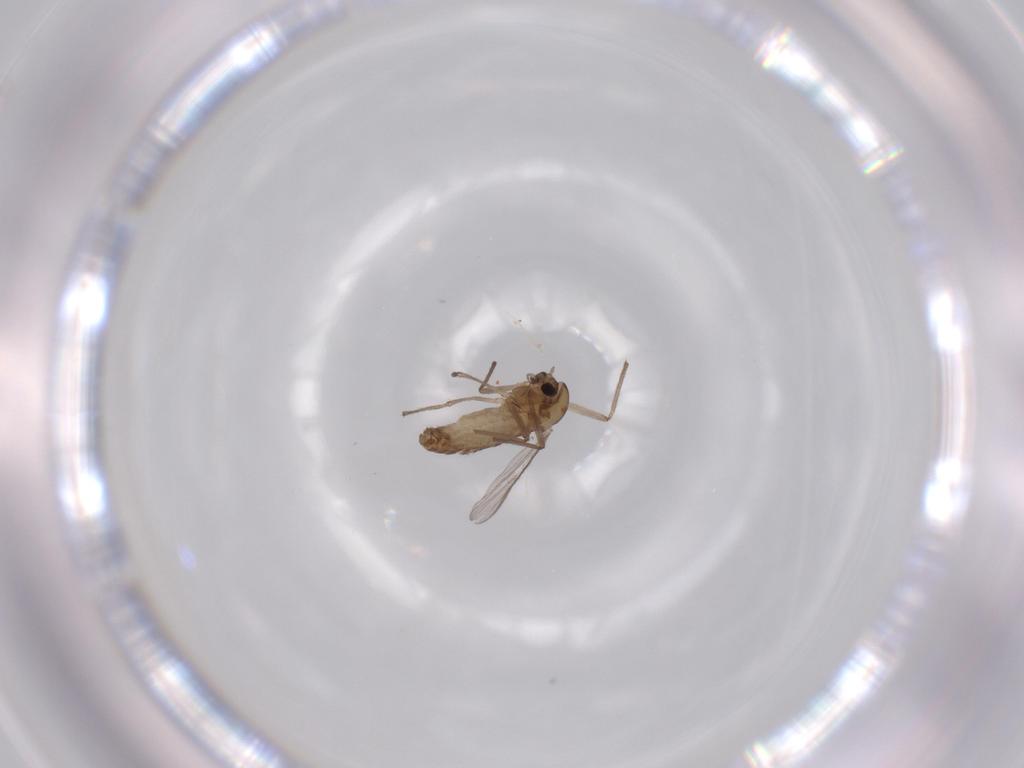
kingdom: Animalia
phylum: Arthropoda
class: Insecta
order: Diptera
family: Chironomidae
